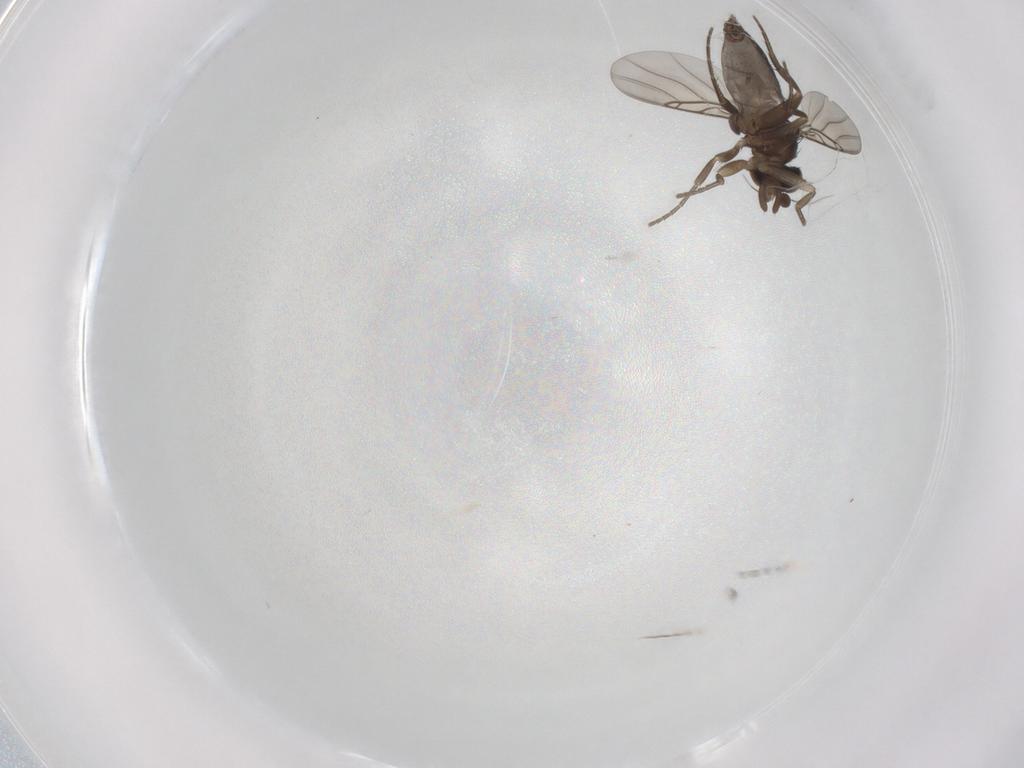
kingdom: Animalia
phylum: Arthropoda
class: Insecta
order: Diptera
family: Phoridae
